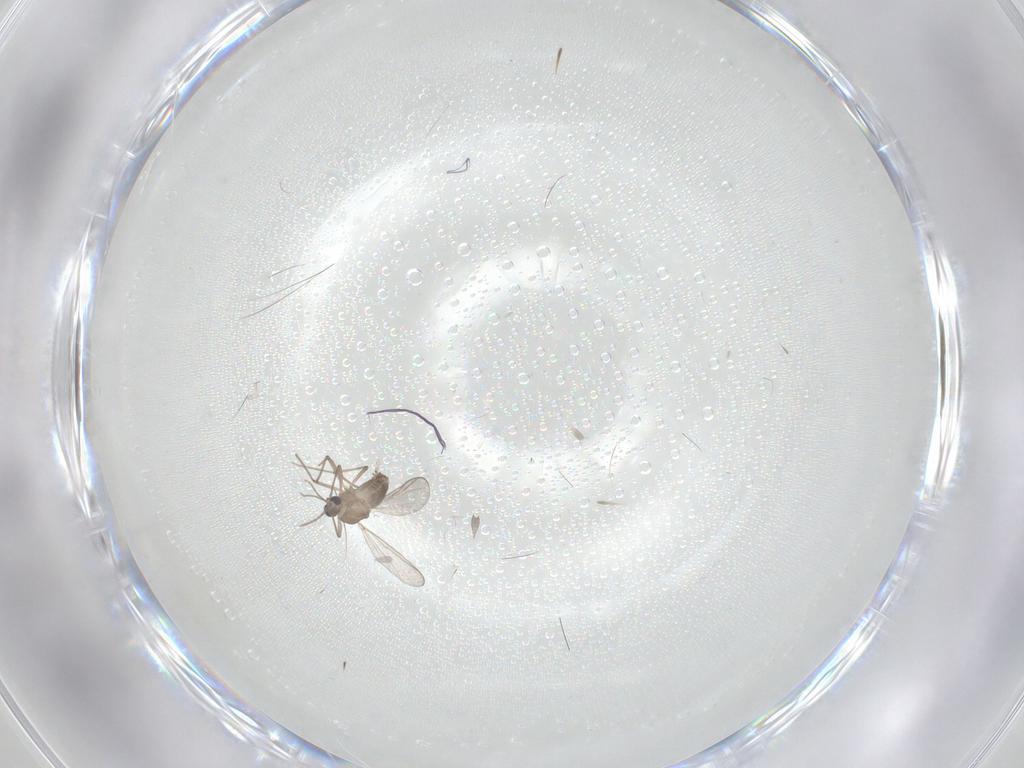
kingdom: Animalia
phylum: Arthropoda
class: Insecta
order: Diptera
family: Chironomidae
